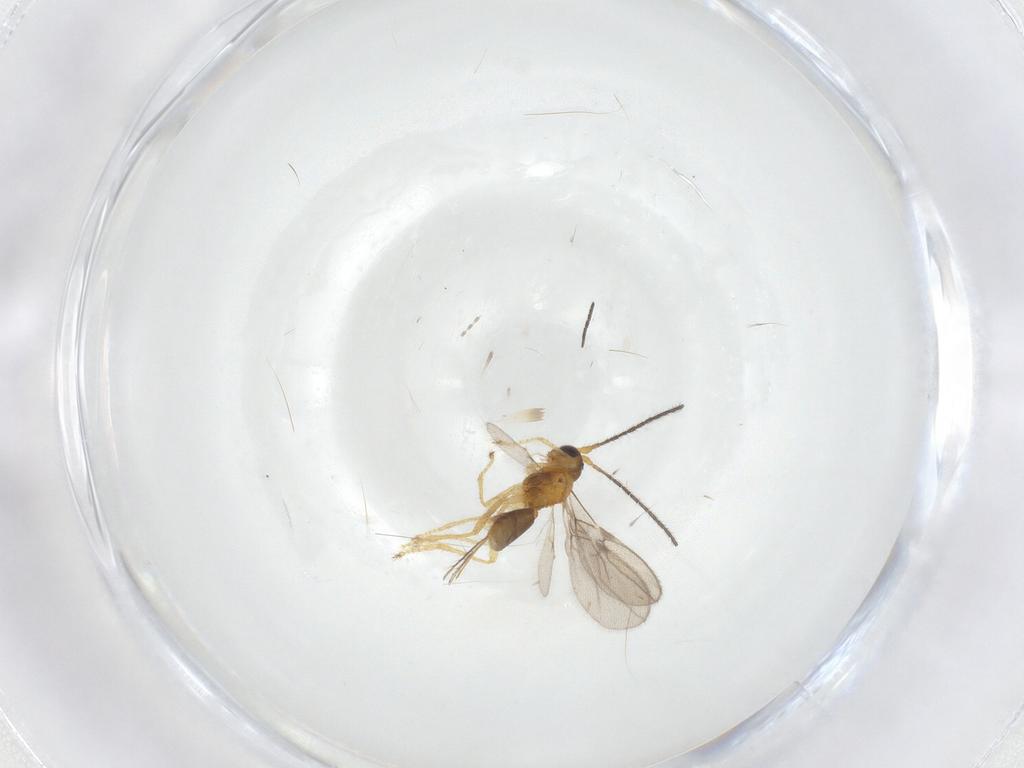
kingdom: Animalia
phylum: Arthropoda
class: Insecta
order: Hymenoptera
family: Braconidae
